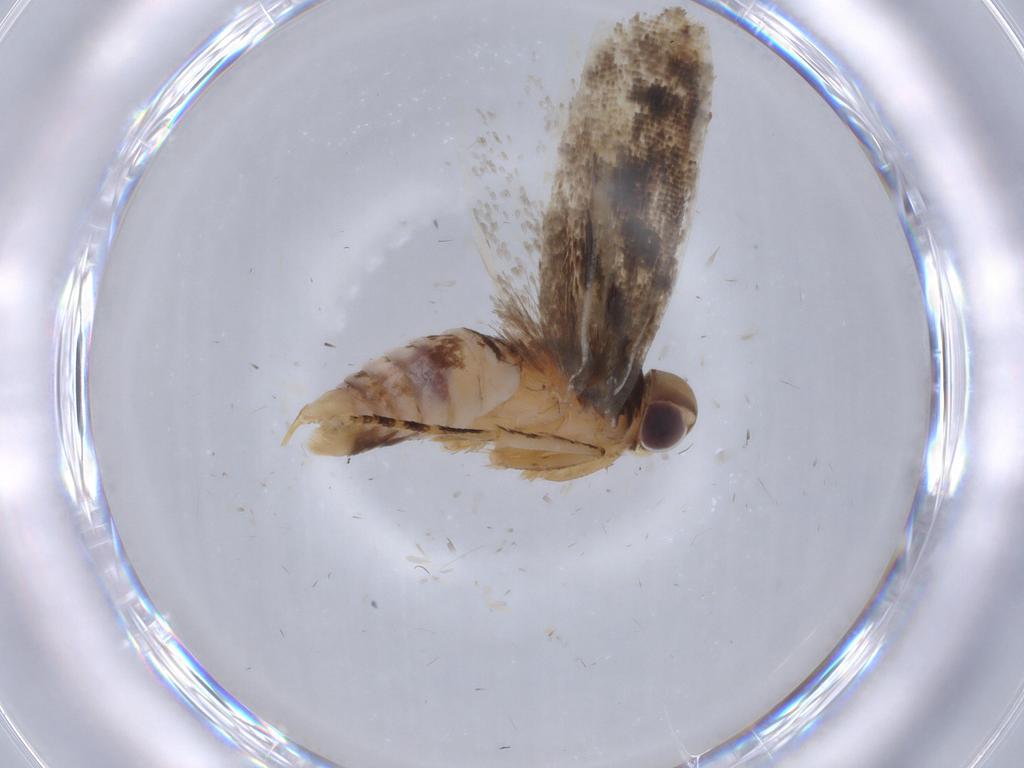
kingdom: Animalia
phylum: Arthropoda
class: Insecta
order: Lepidoptera
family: Gelechiidae
